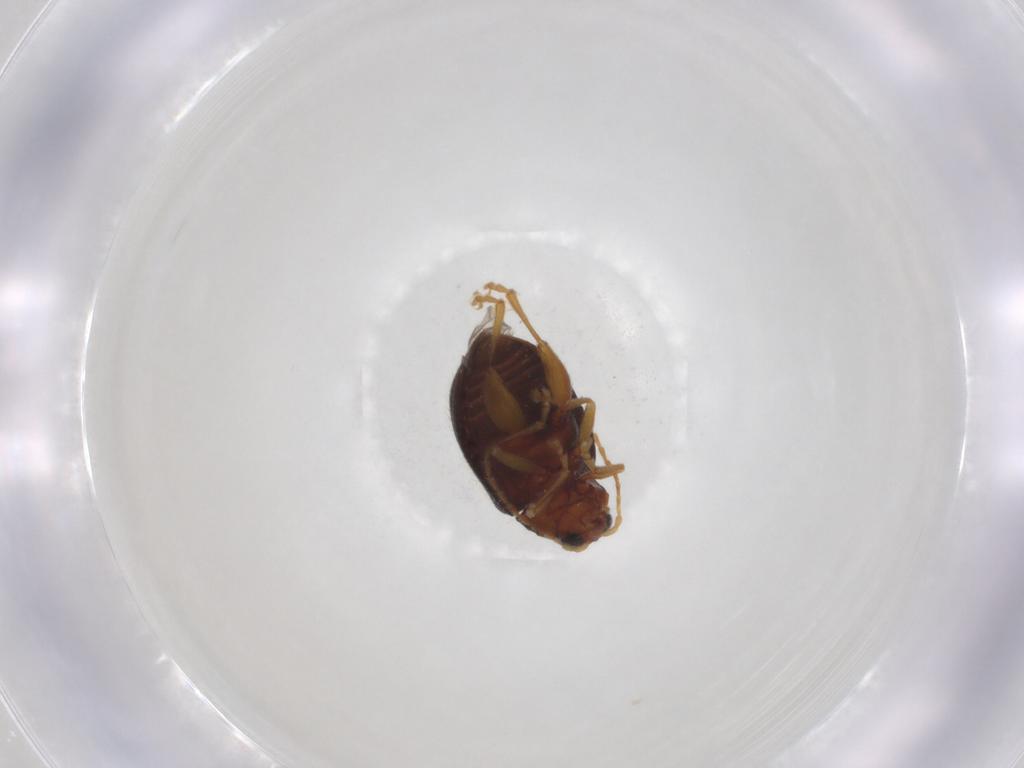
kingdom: Animalia
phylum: Arthropoda
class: Insecta
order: Coleoptera
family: Chrysomelidae
